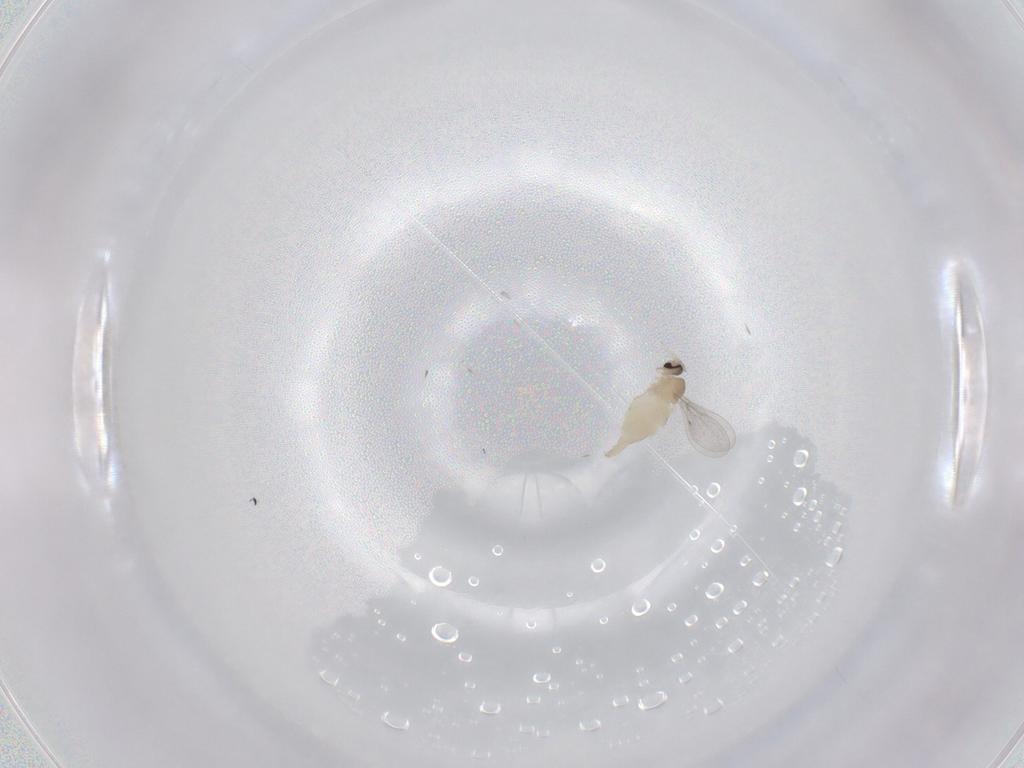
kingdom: Animalia
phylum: Arthropoda
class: Insecta
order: Diptera
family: Cecidomyiidae
